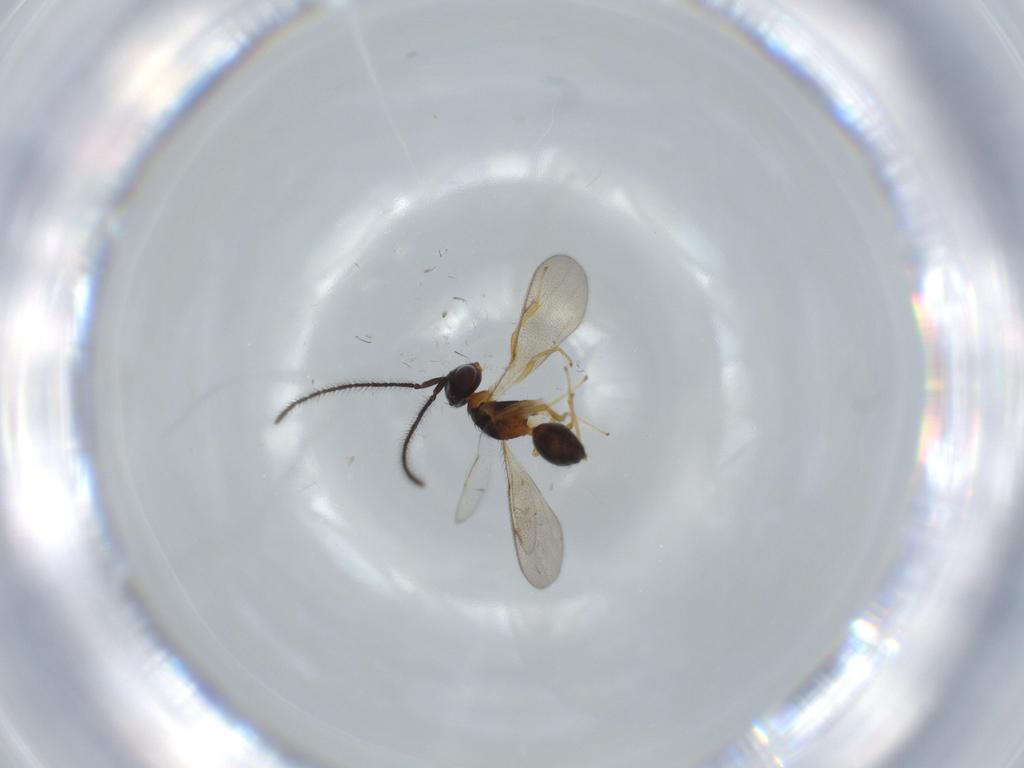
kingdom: Animalia
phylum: Arthropoda
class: Insecta
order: Hymenoptera
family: Diparidae
